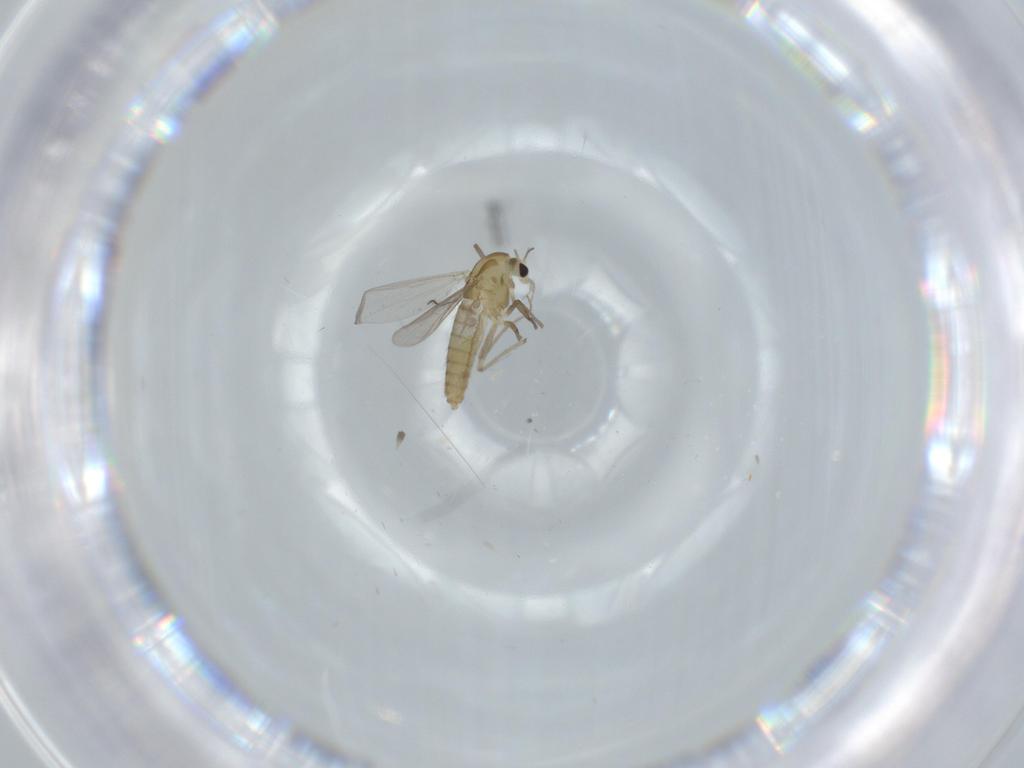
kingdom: Animalia
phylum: Arthropoda
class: Insecta
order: Diptera
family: Chironomidae
